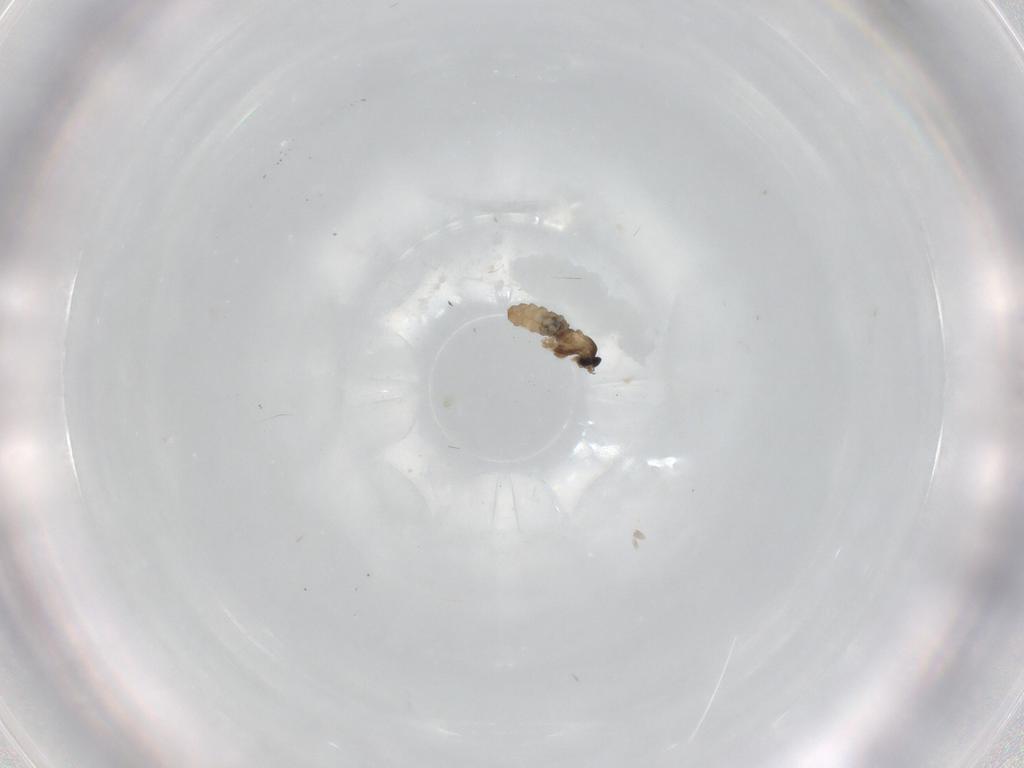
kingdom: Animalia
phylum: Arthropoda
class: Insecta
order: Diptera
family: Cecidomyiidae
